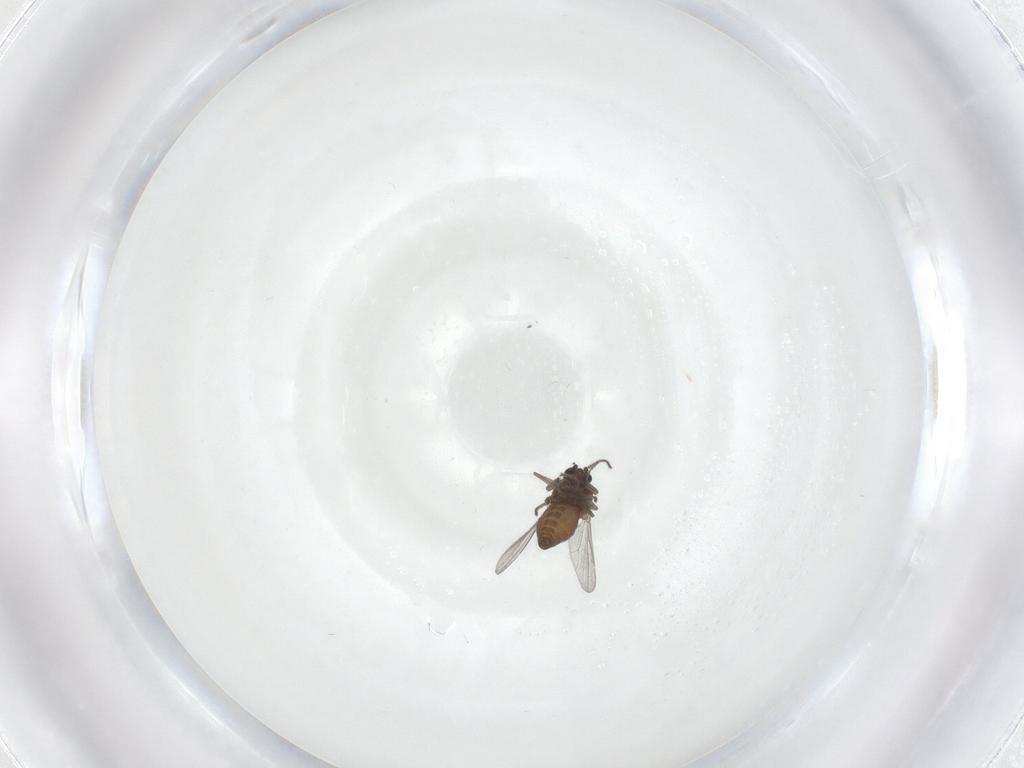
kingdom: Animalia
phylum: Arthropoda
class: Insecta
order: Diptera
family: Ceratopogonidae
